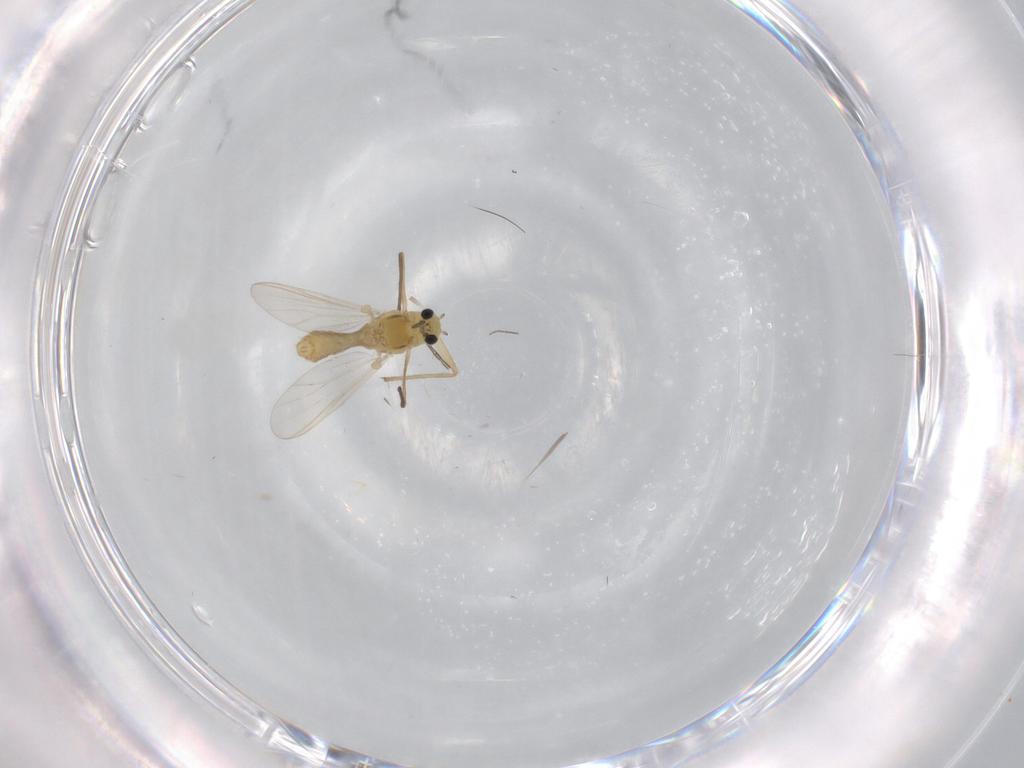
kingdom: Animalia
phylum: Arthropoda
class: Insecta
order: Diptera
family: Chironomidae
